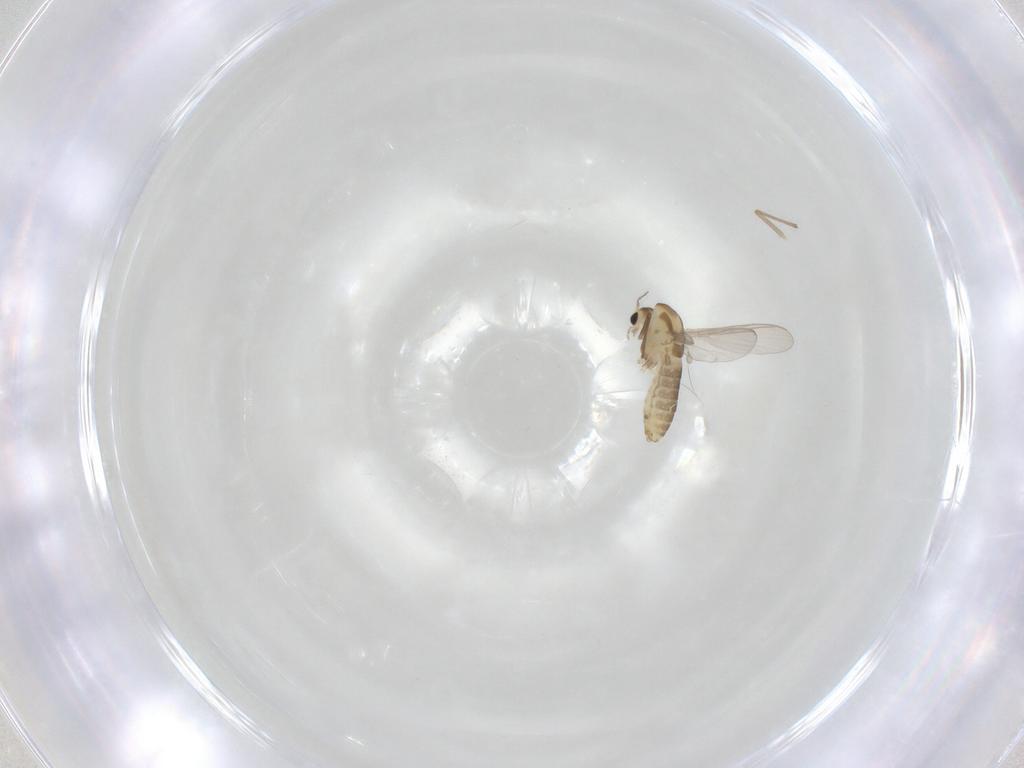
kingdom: Animalia
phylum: Arthropoda
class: Insecta
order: Diptera
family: Chironomidae
